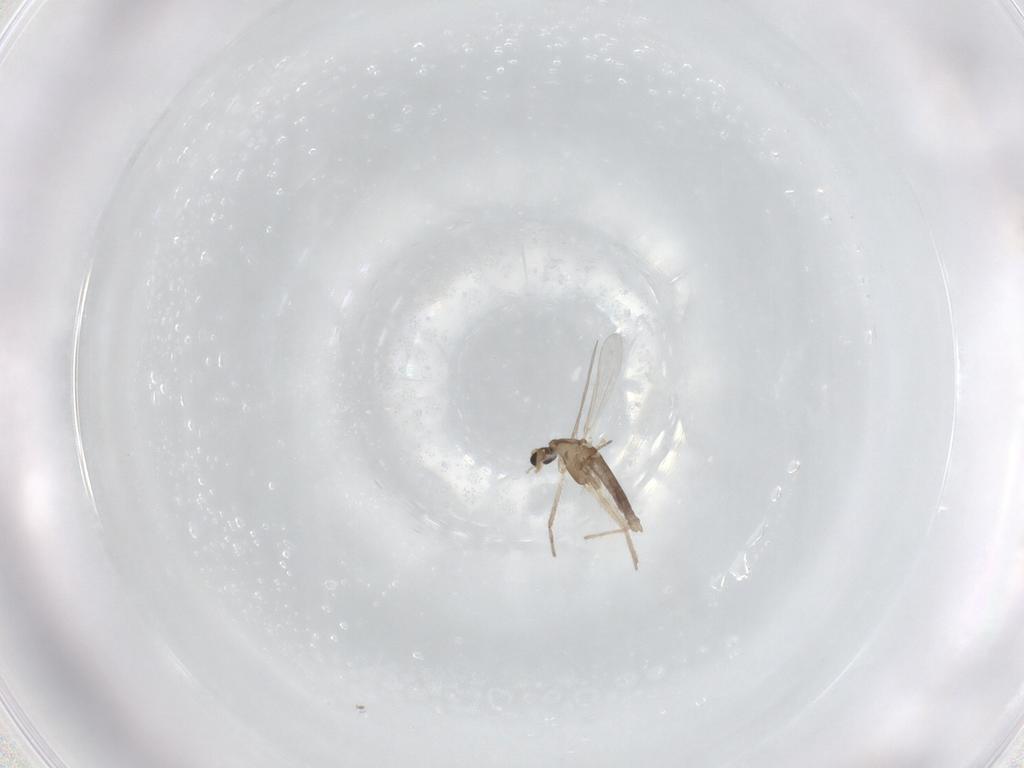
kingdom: Animalia
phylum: Arthropoda
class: Insecta
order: Diptera
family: Chironomidae
